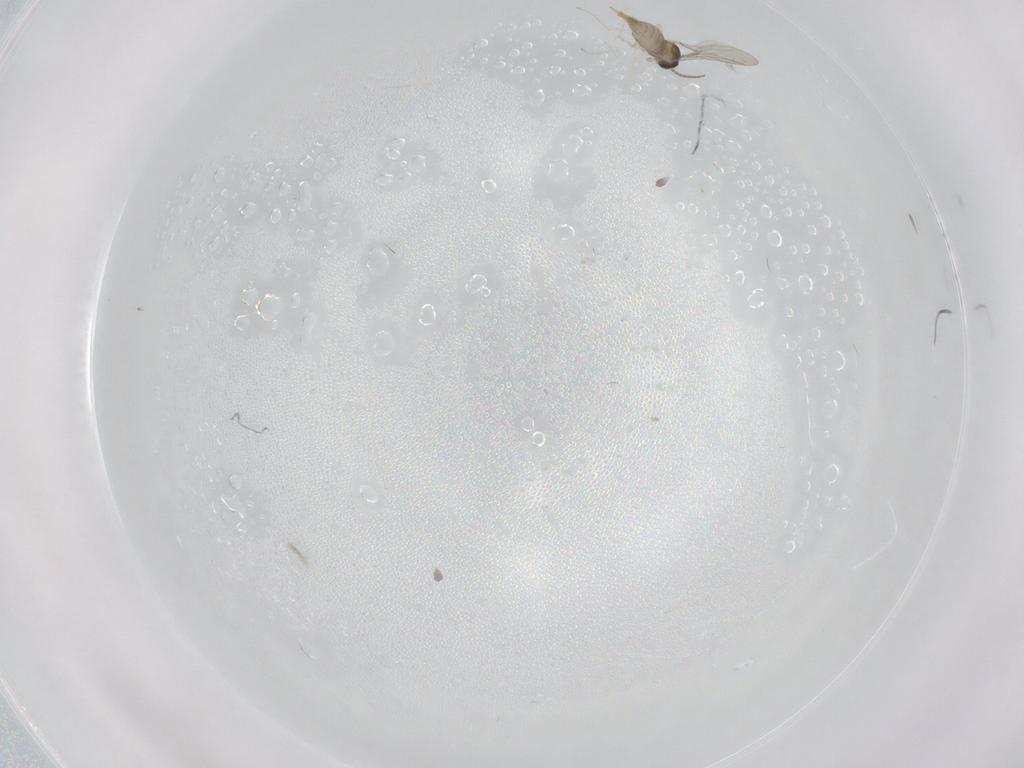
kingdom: Animalia
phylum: Arthropoda
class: Insecta
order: Diptera
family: Cecidomyiidae
